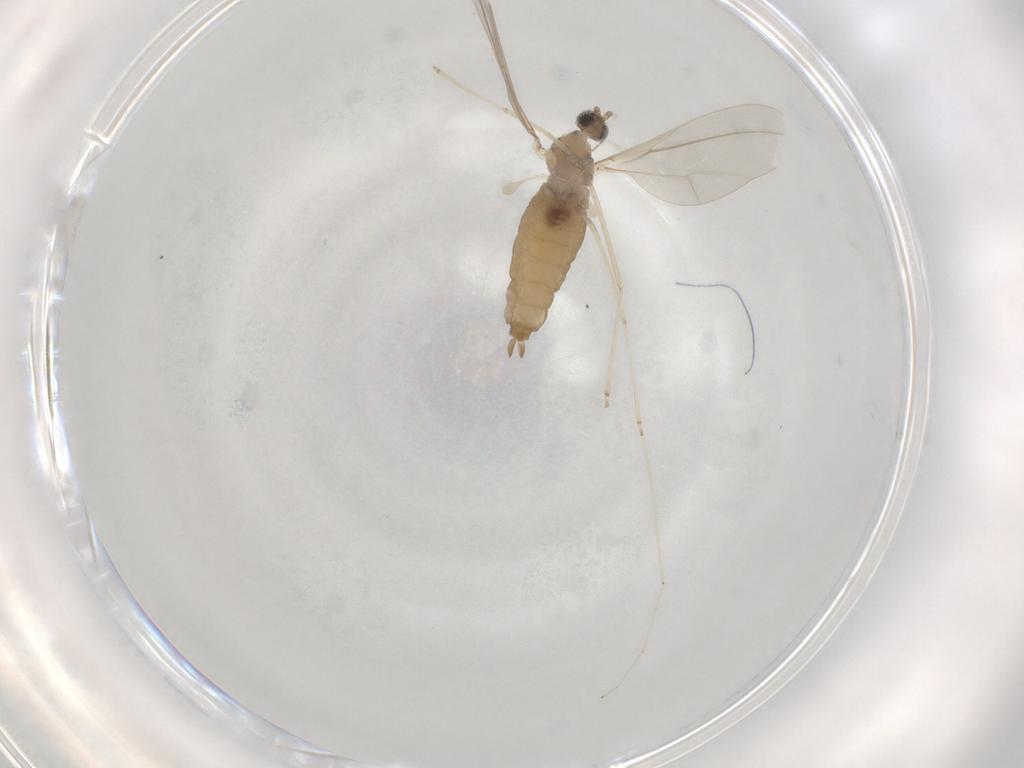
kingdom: Animalia
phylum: Arthropoda
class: Insecta
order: Diptera
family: Cecidomyiidae
